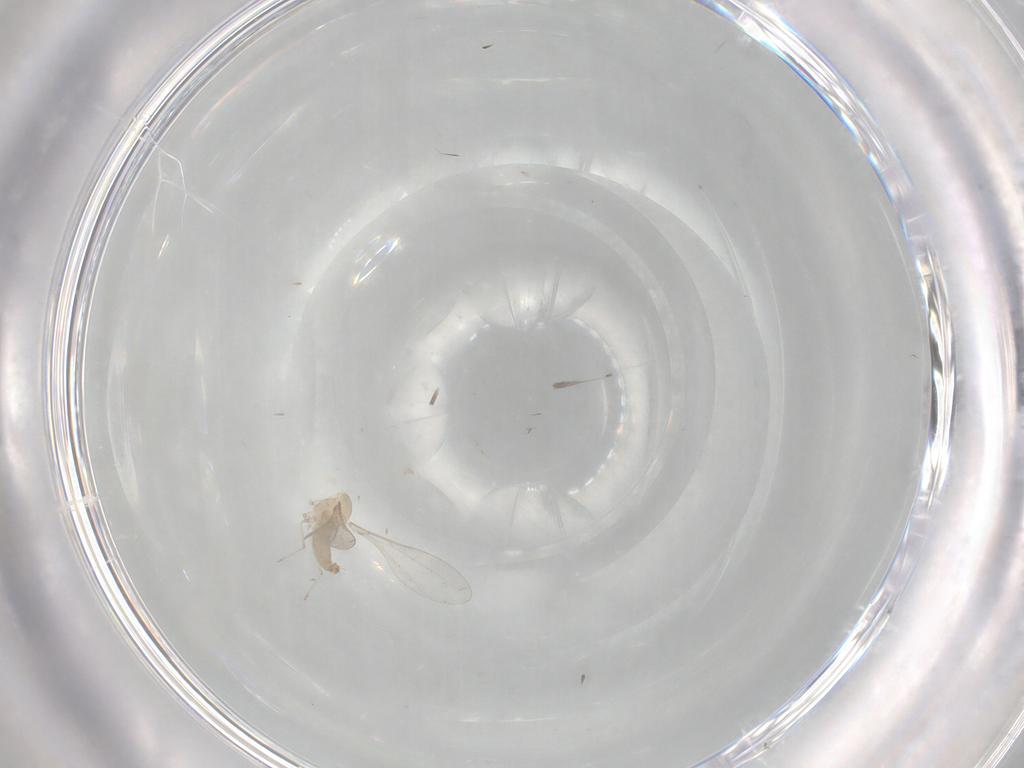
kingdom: Animalia
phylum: Arthropoda
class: Insecta
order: Diptera
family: Cecidomyiidae
